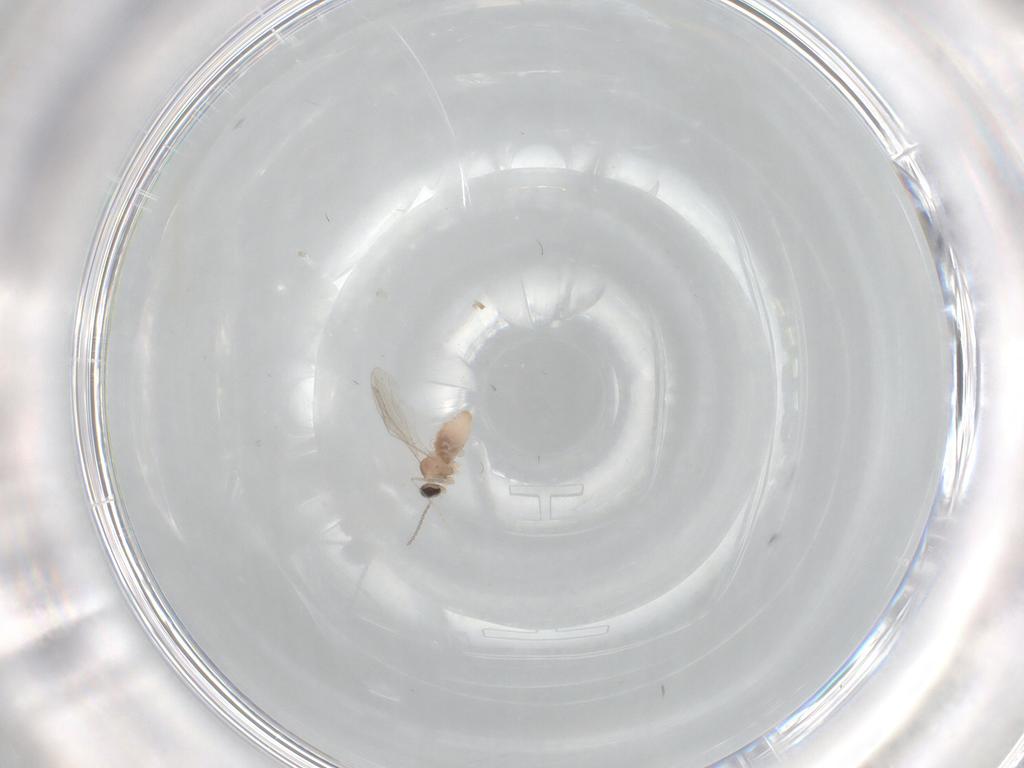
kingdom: Animalia
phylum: Arthropoda
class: Insecta
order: Diptera
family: Cecidomyiidae
